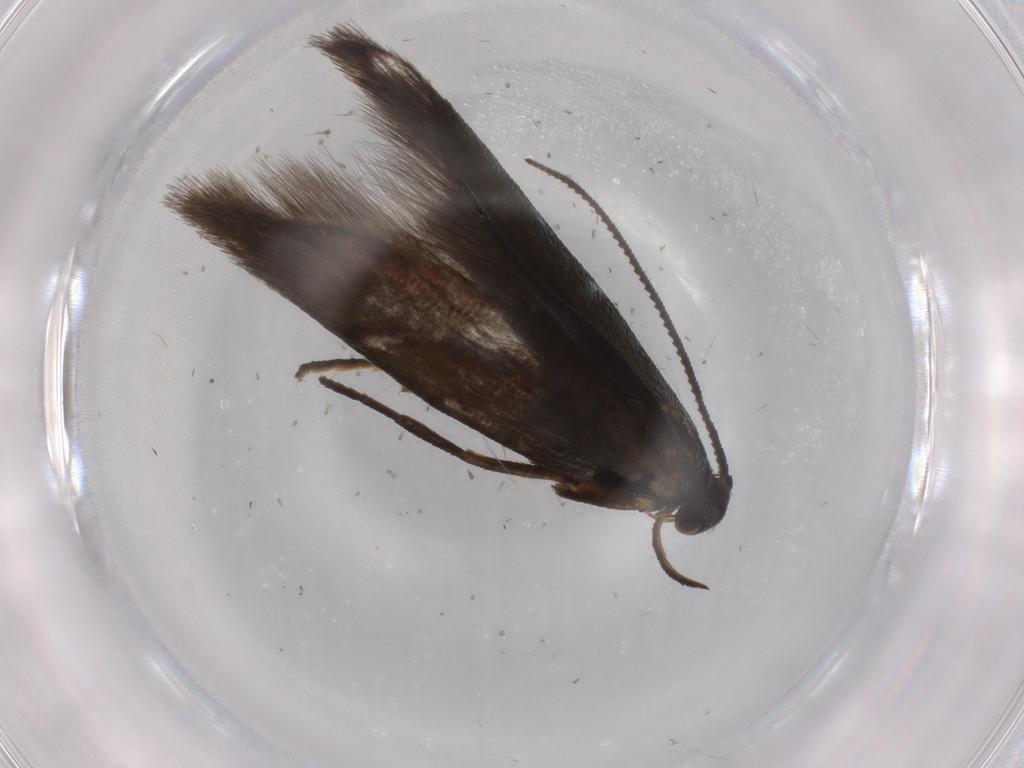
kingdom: Animalia
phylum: Arthropoda
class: Insecta
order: Lepidoptera
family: Argyresthiidae
